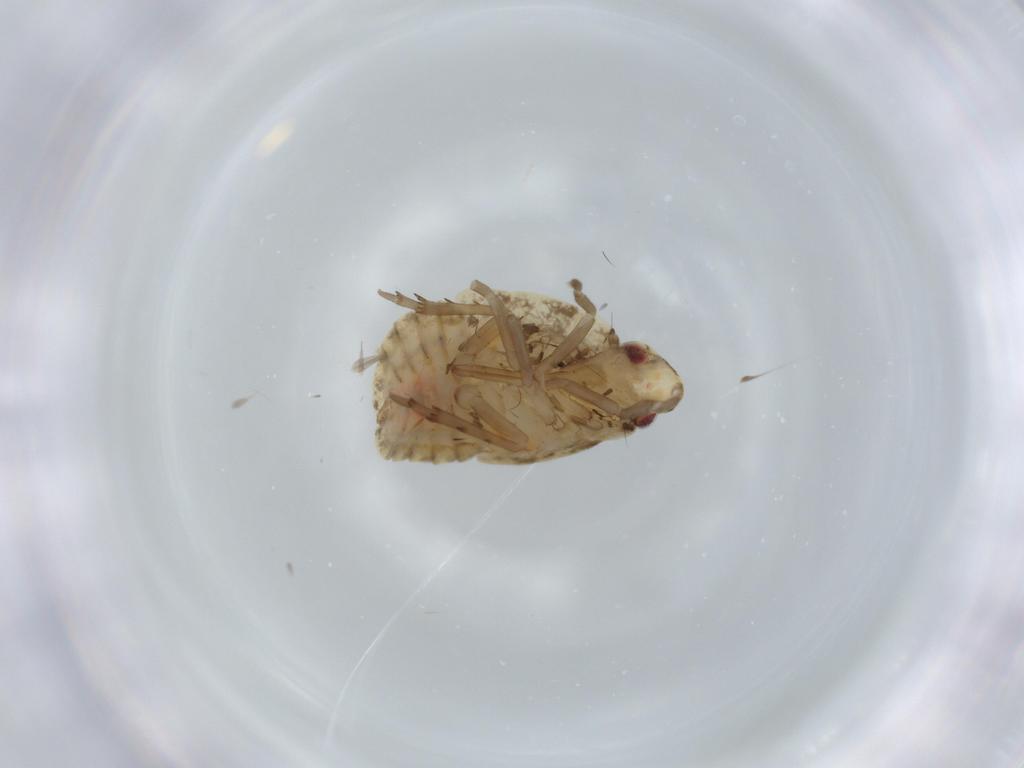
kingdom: Animalia
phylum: Arthropoda
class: Insecta
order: Hemiptera
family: Flatidae
